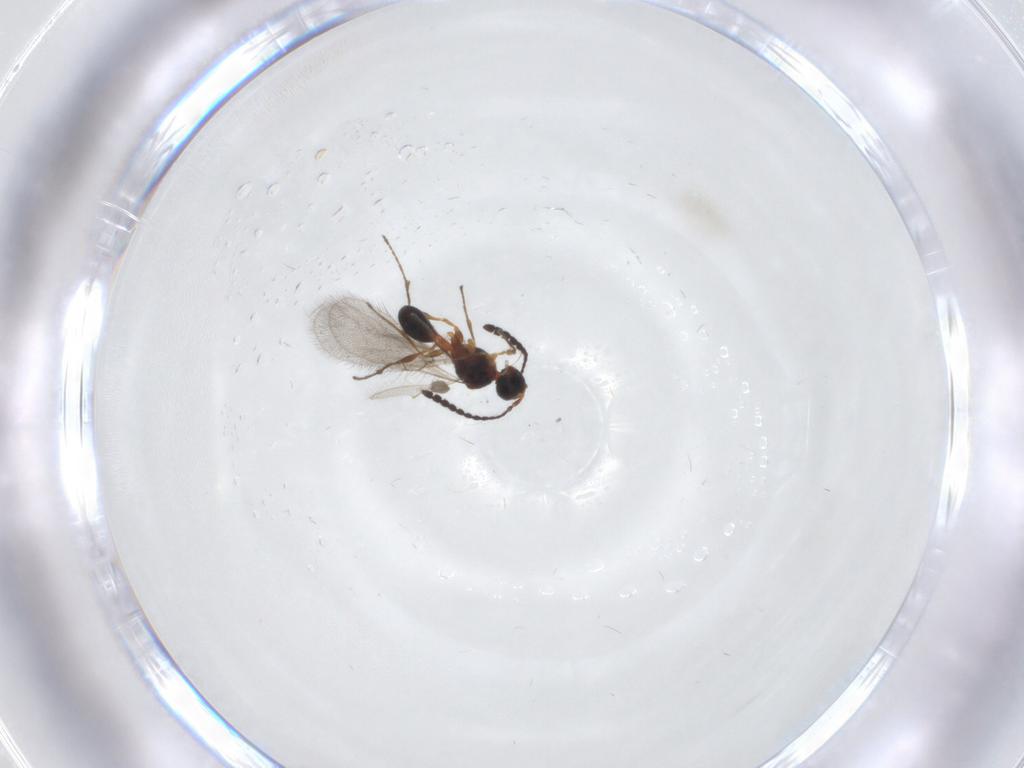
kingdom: Animalia
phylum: Arthropoda
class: Insecta
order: Hymenoptera
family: Diapriidae
